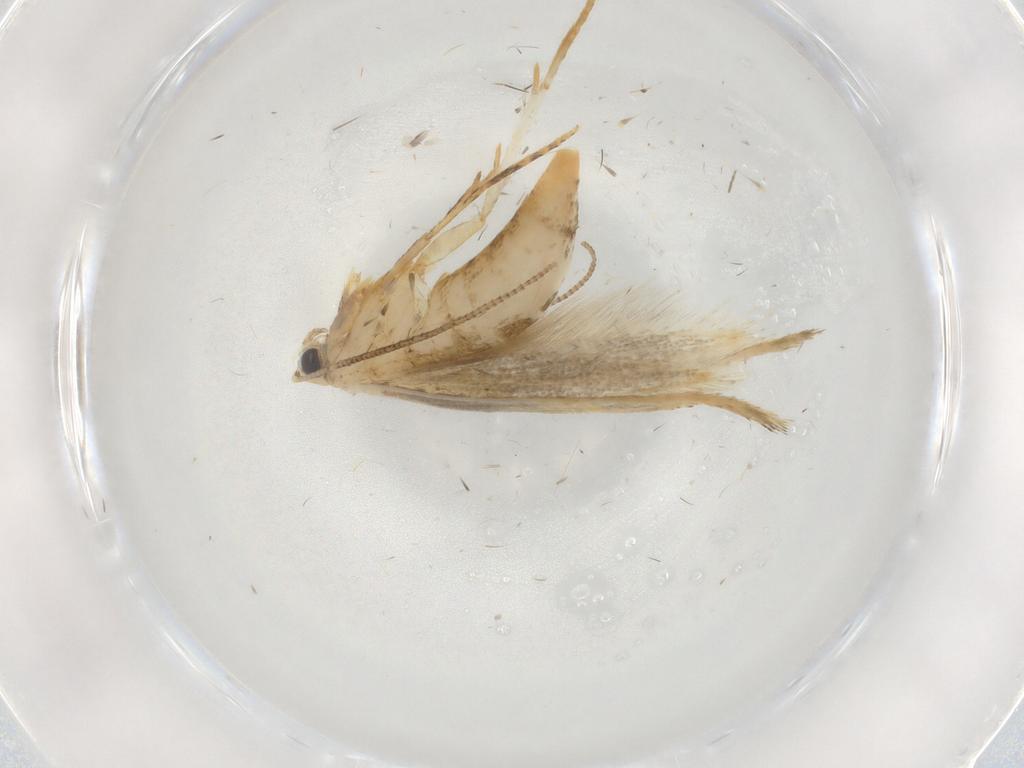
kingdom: Animalia
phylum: Arthropoda
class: Insecta
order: Lepidoptera
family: Tineidae
